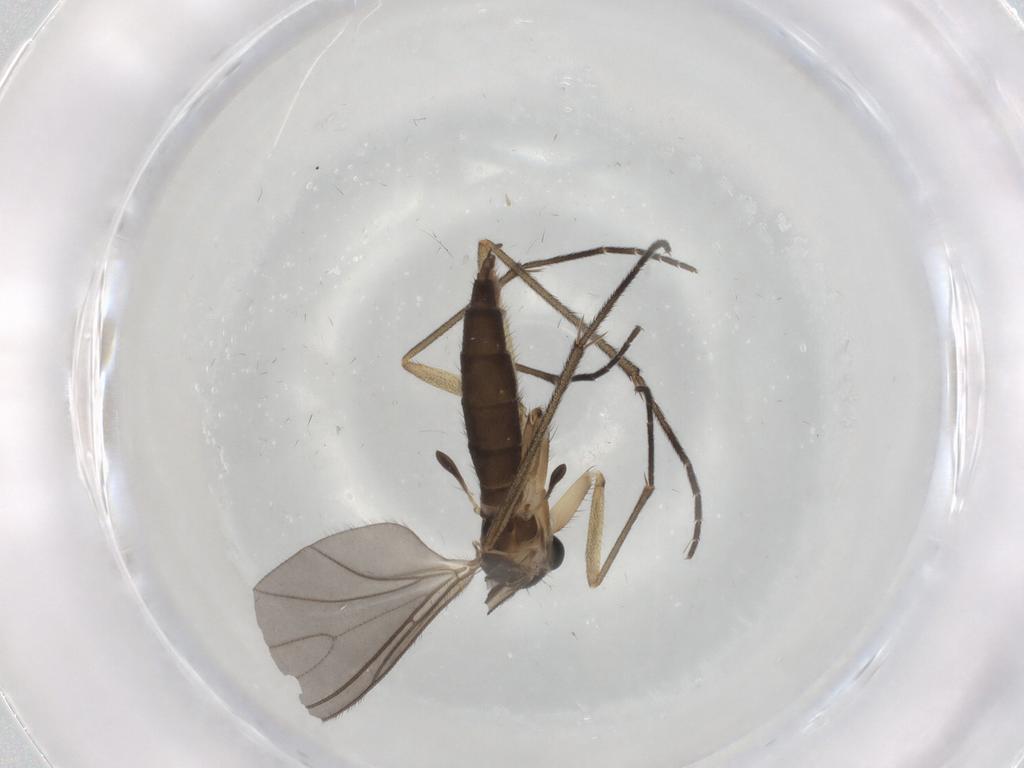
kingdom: Animalia
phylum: Arthropoda
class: Insecta
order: Diptera
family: Sciaridae
